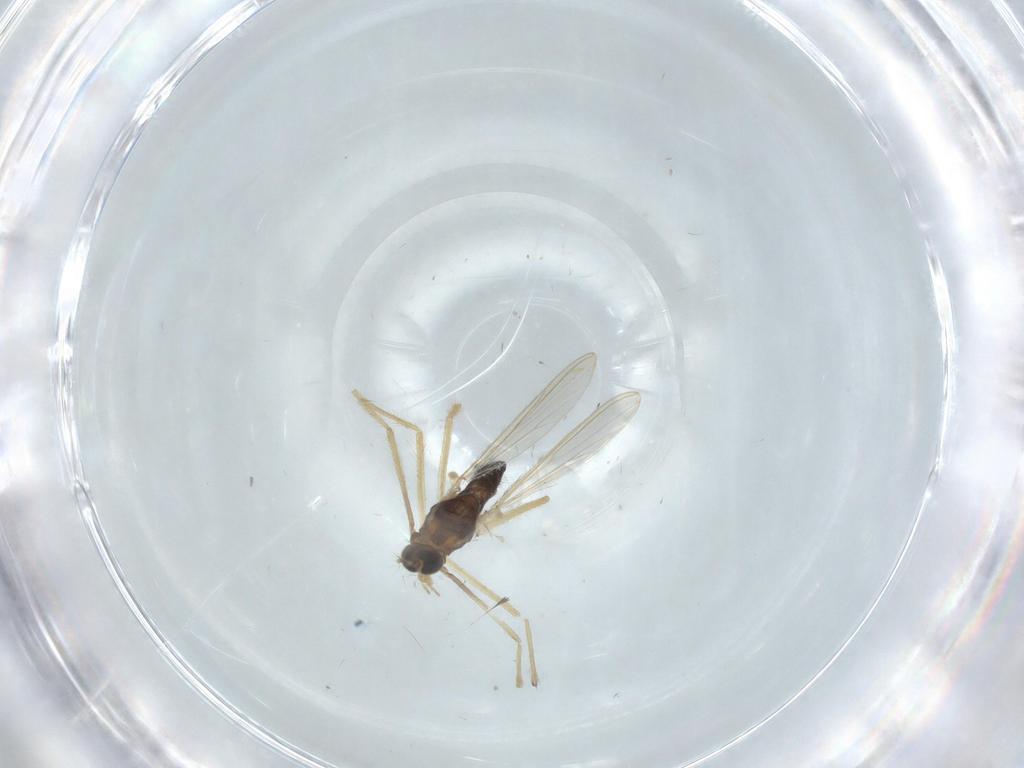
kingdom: Animalia
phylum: Arthropoda
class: Insecta
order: Diptera
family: Chironomidae
